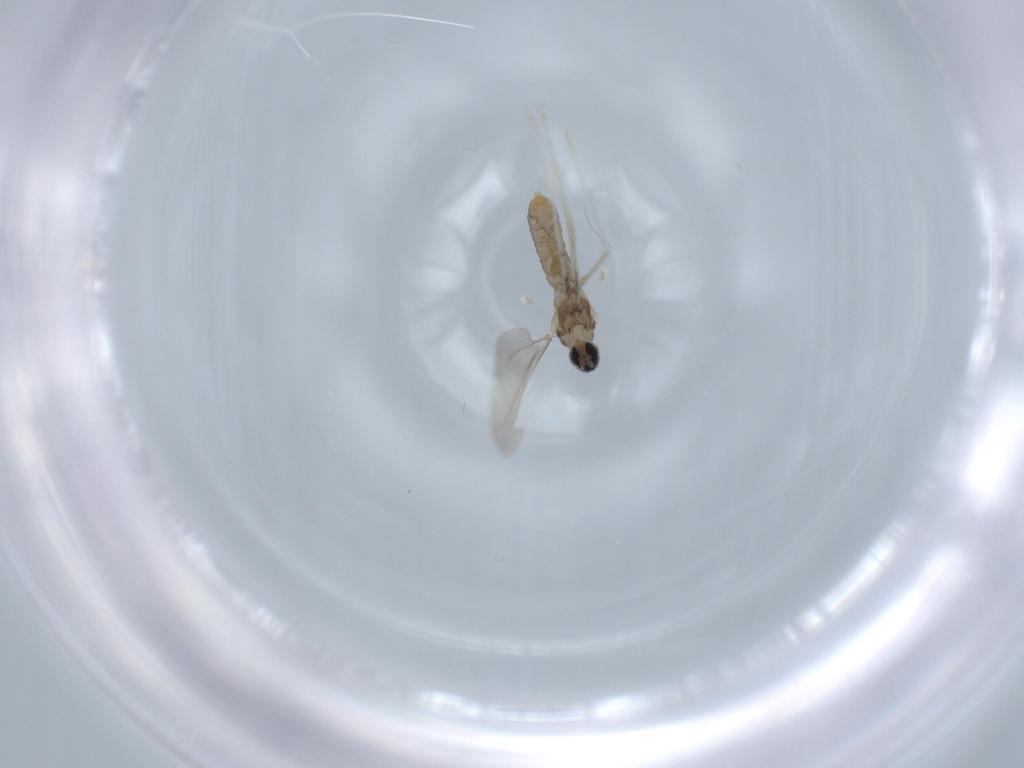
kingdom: Animalia
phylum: Arthropoda
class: Insecta
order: Diptera
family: Cecidomyiidae
